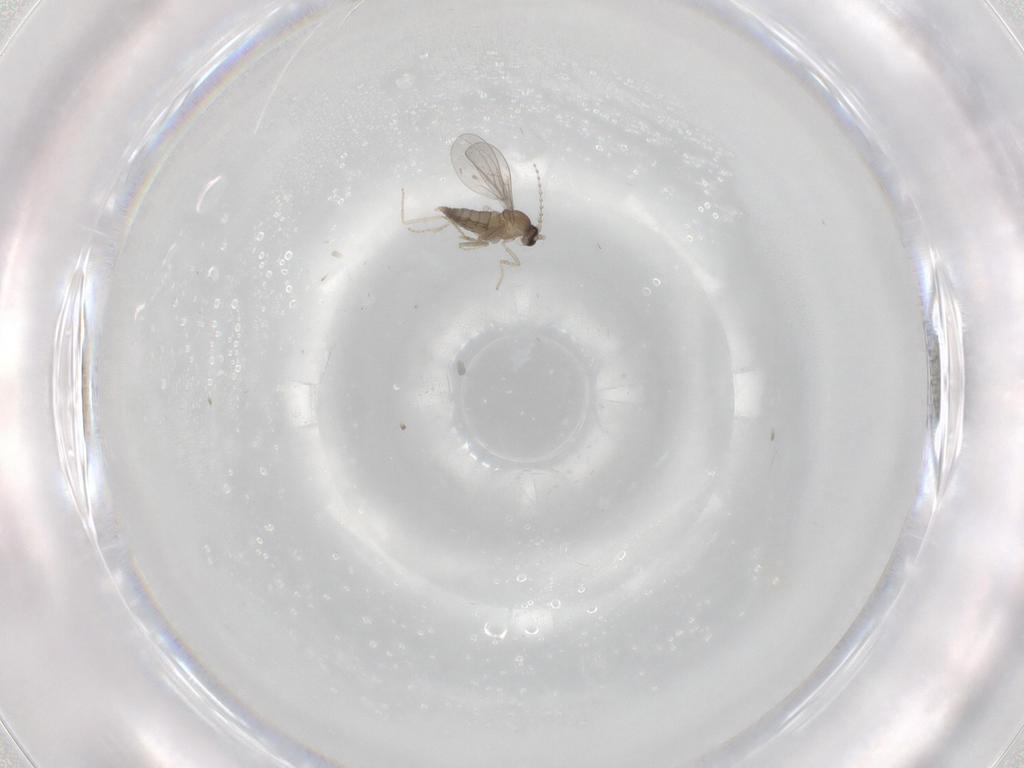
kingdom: Animalia
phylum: Arthropoda
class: Insecta
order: Diptera
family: Cecidomyiidae
